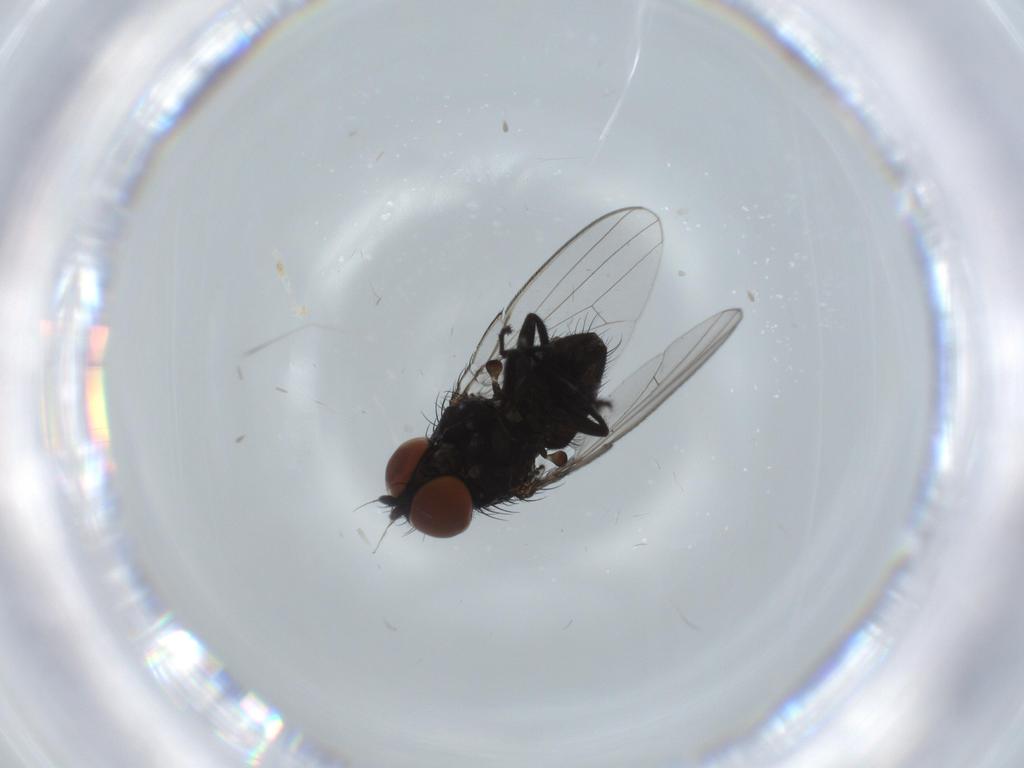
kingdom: Animalia
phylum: Arthropoda
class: Insecta
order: Diptera
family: Milichiidae
